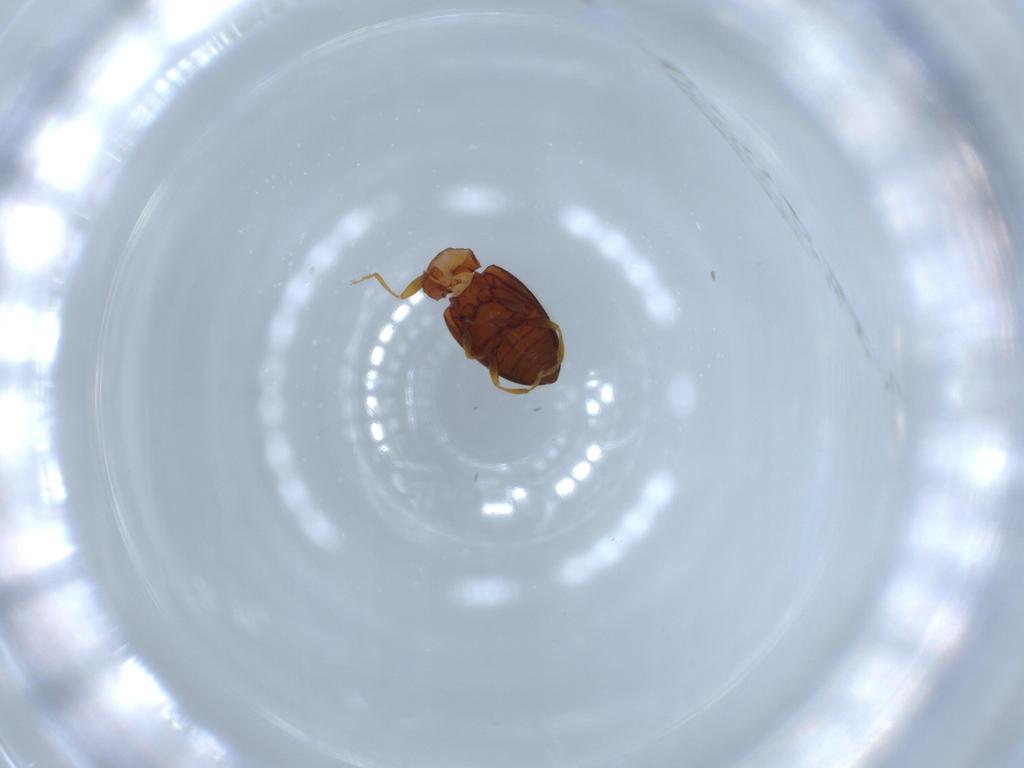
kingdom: Animalia
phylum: Arthropoda
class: Insecta
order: Coleoptera
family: Erotylidae
